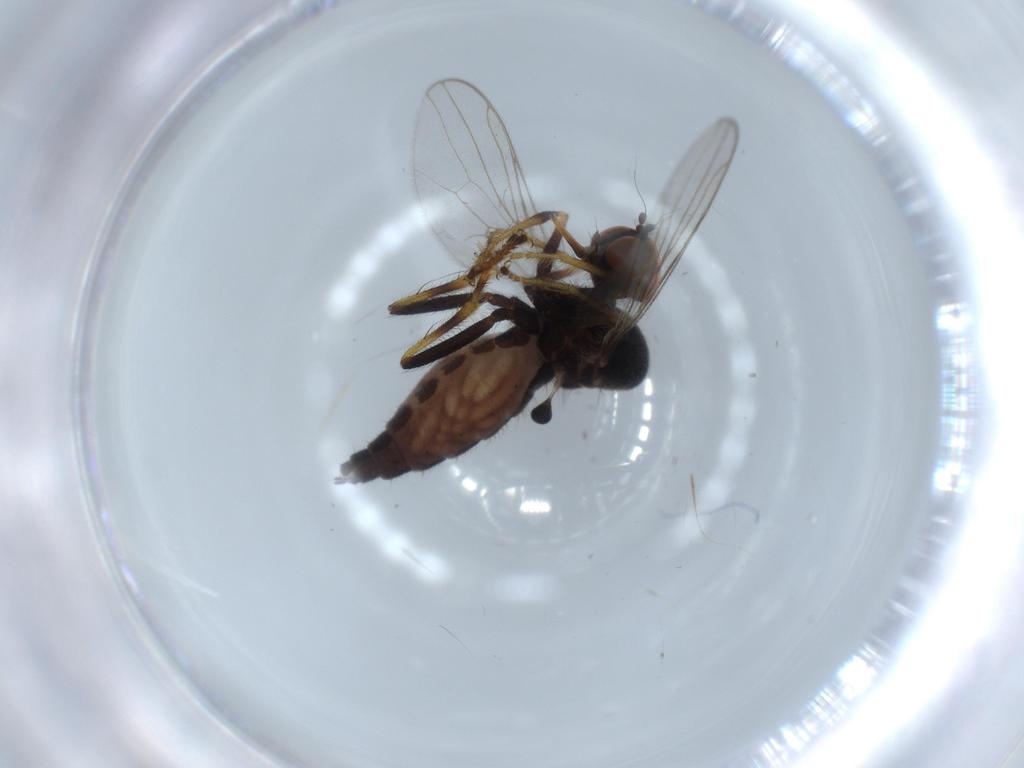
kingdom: Animalia
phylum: Arthropoda
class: Insecta
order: Diptera
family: Hybotidae
